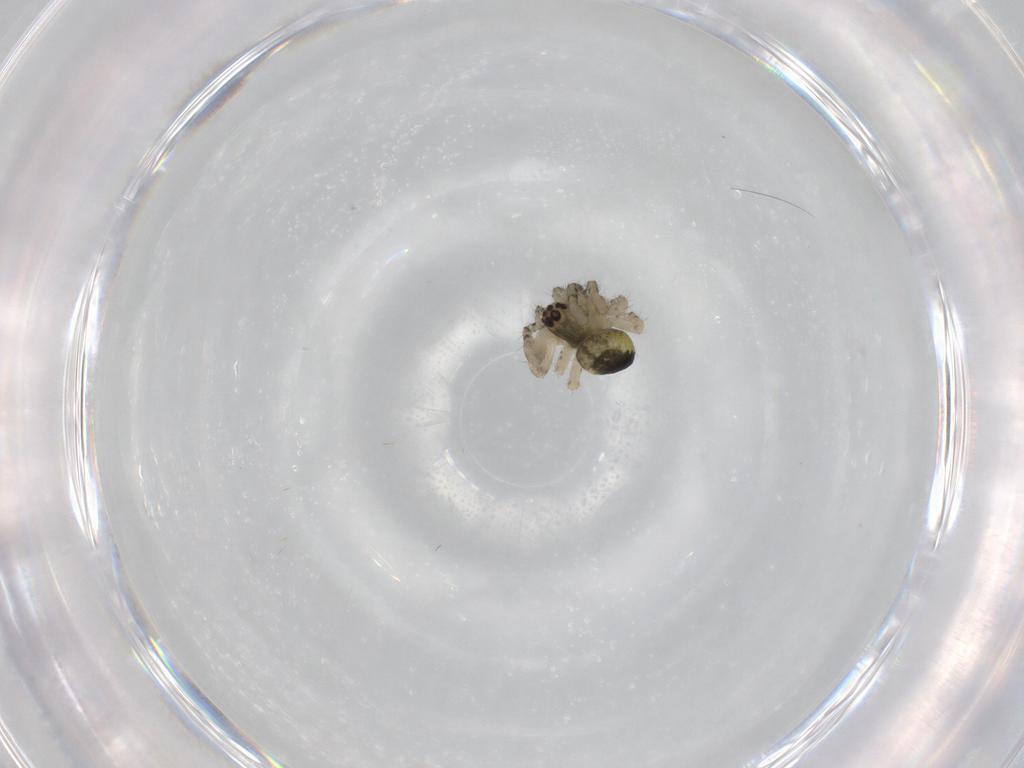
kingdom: Animalia
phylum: Arthropoda
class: Arachnida
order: Araneae
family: Araneidae
